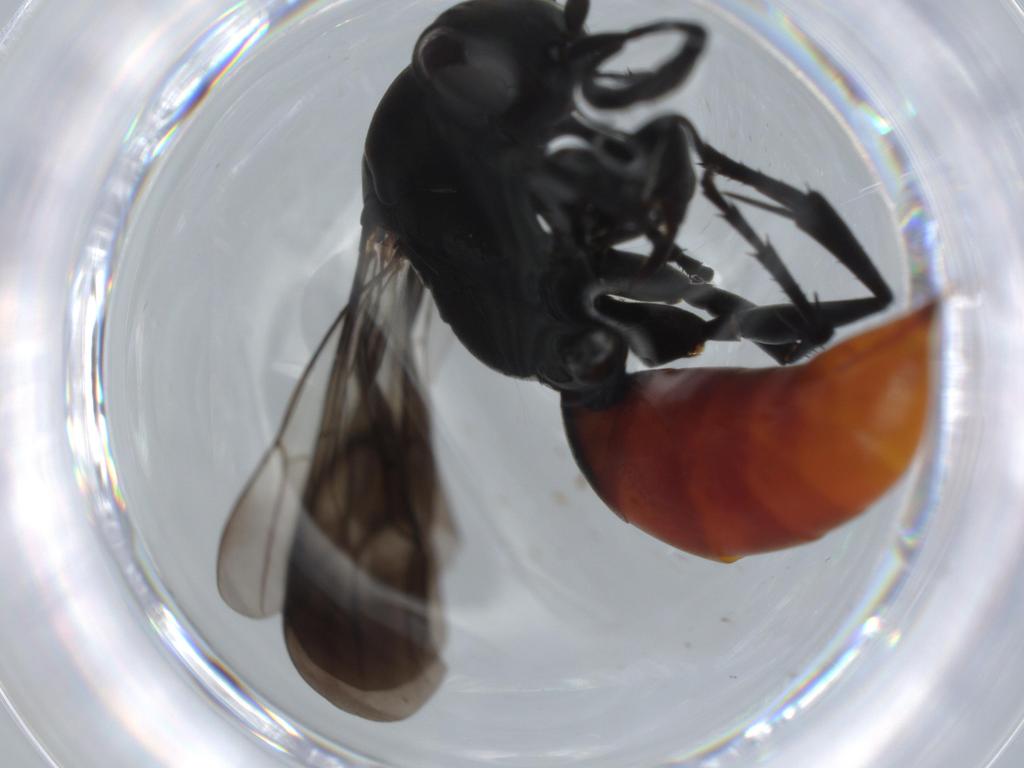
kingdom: Animalia
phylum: Arthropoda
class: Insecta
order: Hymenoptera
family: Pompilidae
